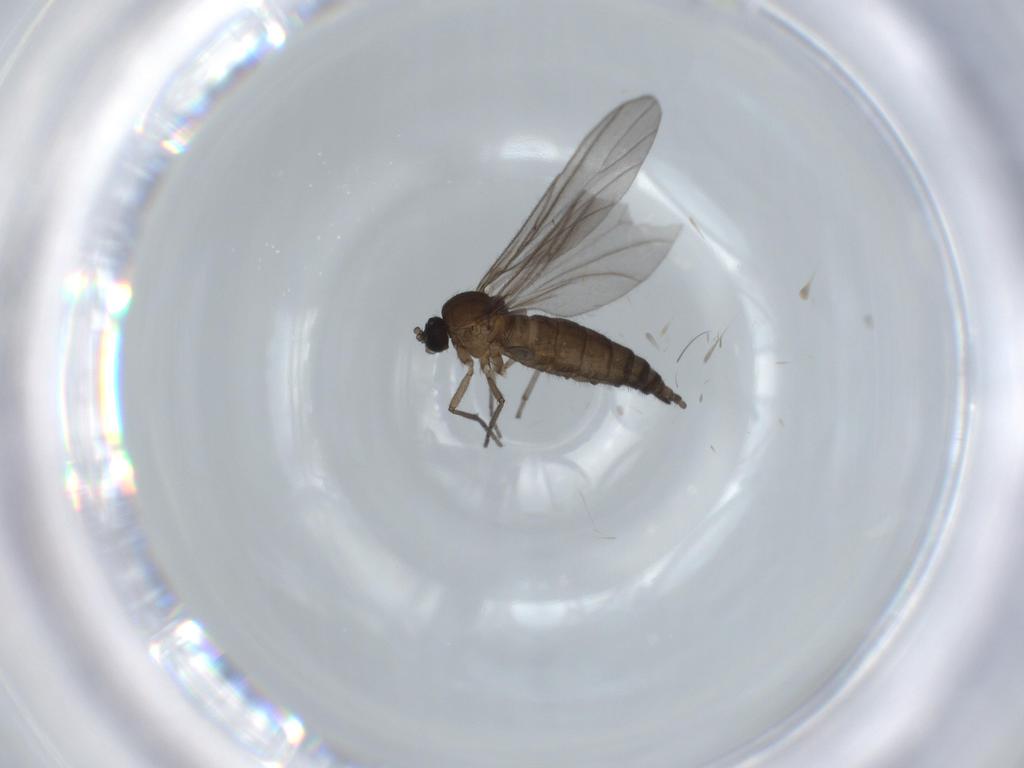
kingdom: Animalia
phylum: Arthropoda
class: Insecta
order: Diptera
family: Sciaridae
